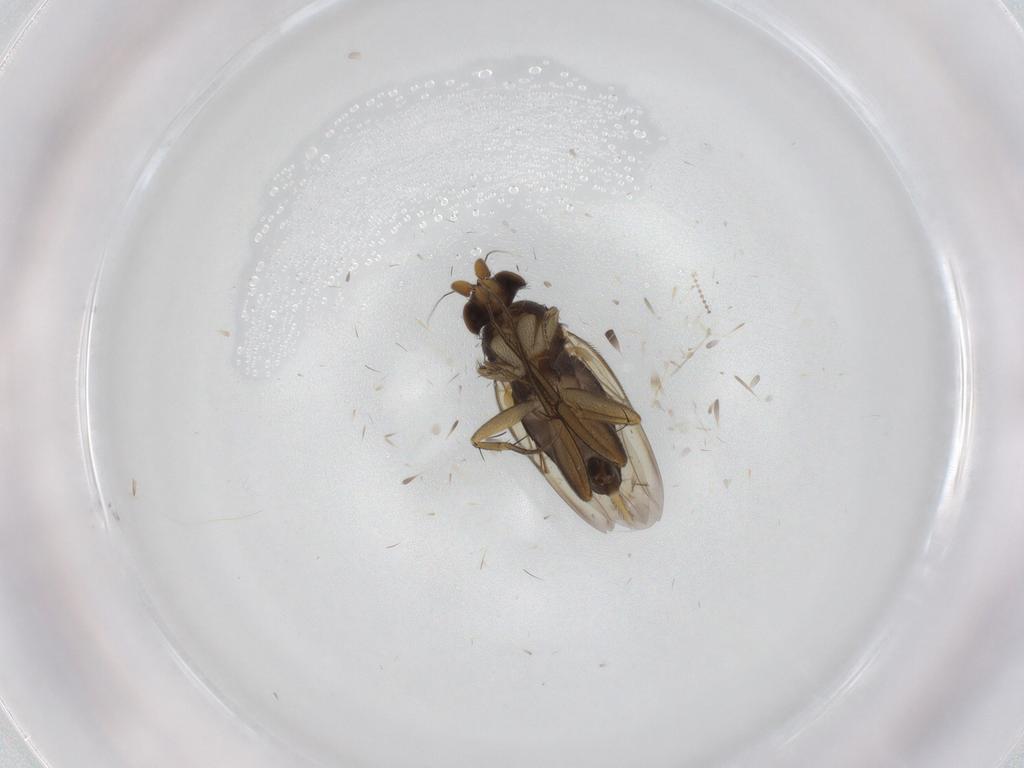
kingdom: Animalia
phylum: Arthropoda
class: Insecta
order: Diptera
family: Phoridae
